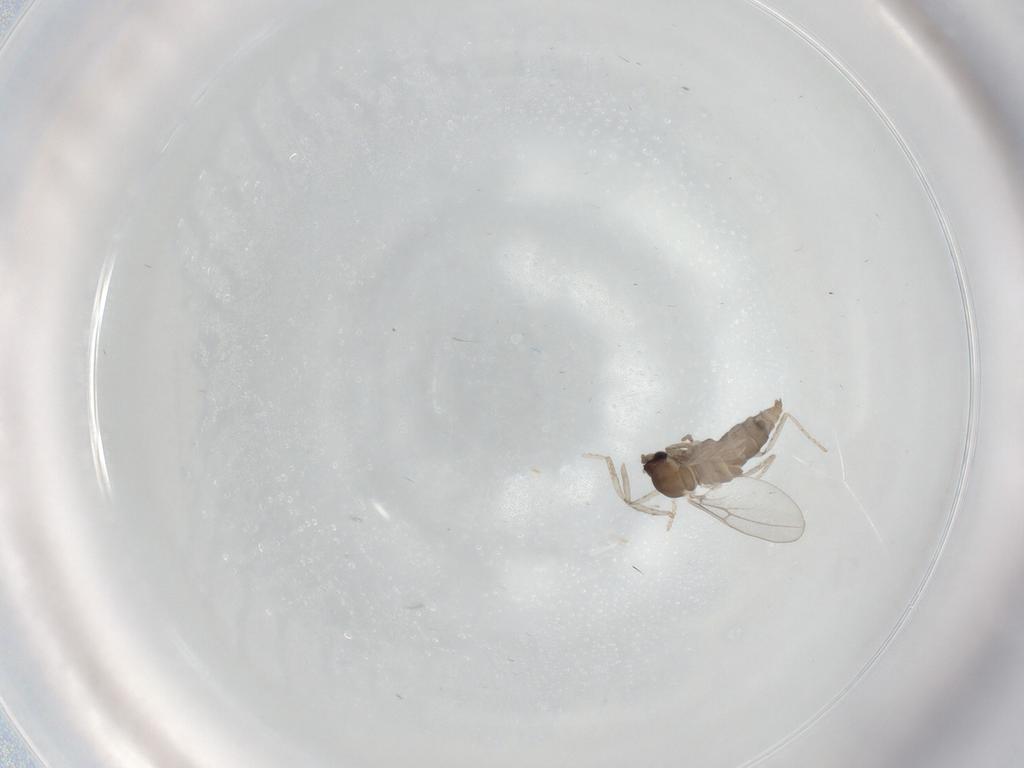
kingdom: Animalia
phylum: Arthropoda
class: Insecta
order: Diptera
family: Cecidomyiidae
